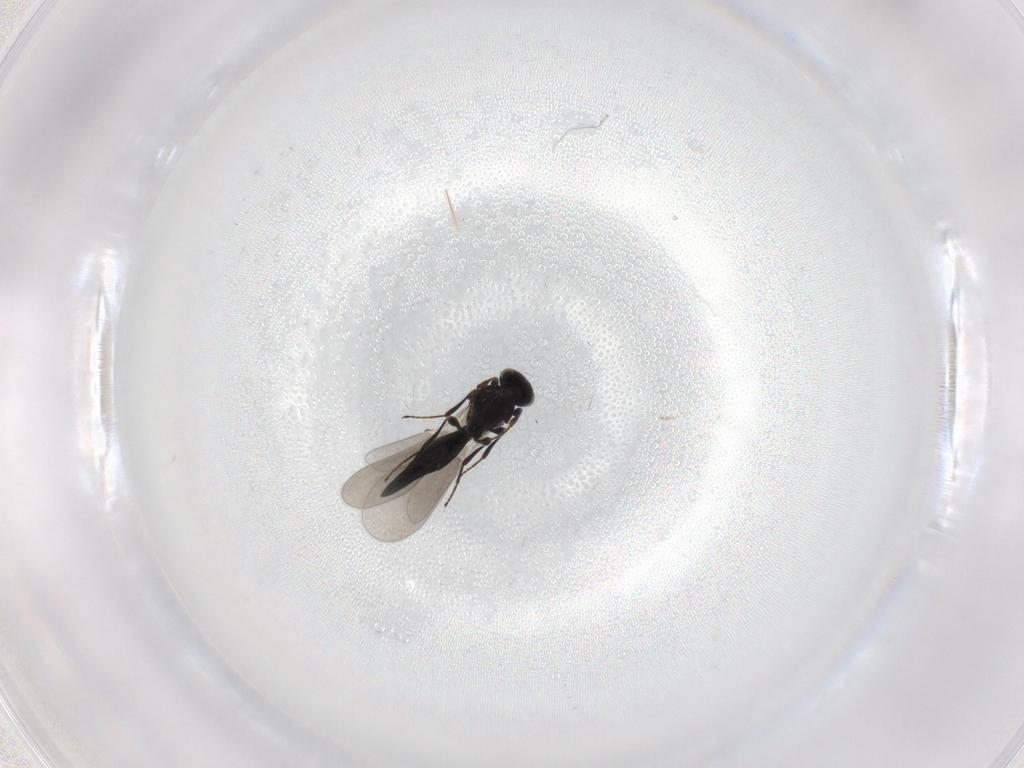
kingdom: Animalia
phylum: Arthropoda
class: Insecta
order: Hymenoptera
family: Platygastridae
